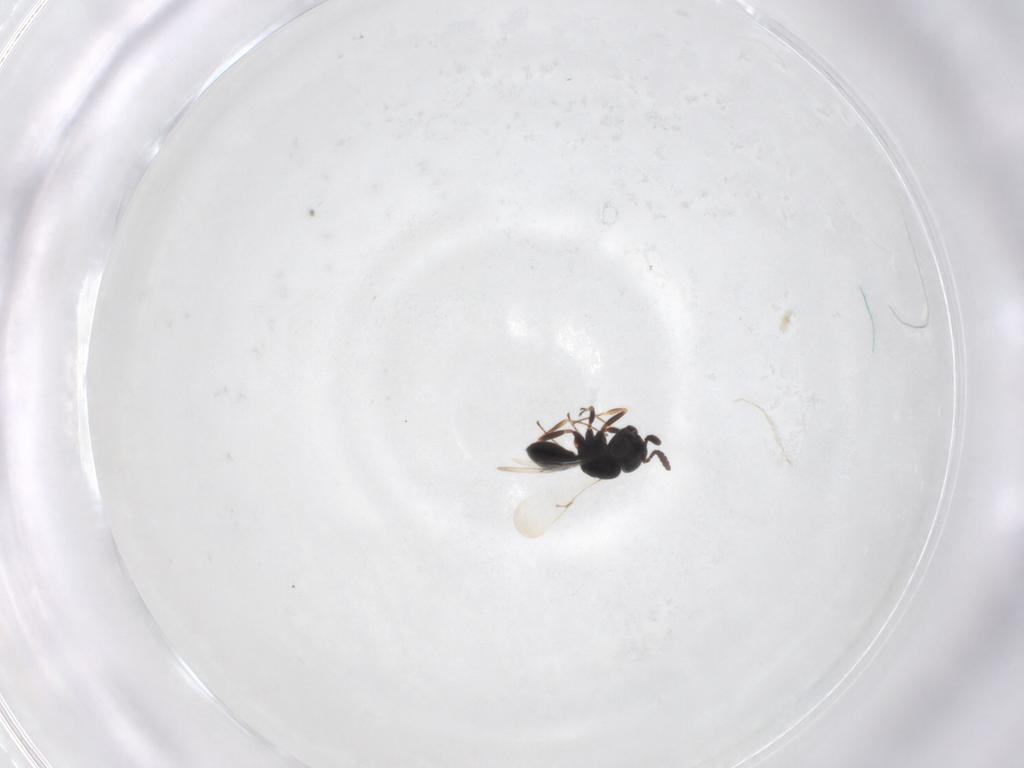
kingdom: Animalia
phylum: Arthropoda
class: Insecta
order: Hymenoptera
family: Scelionidae
